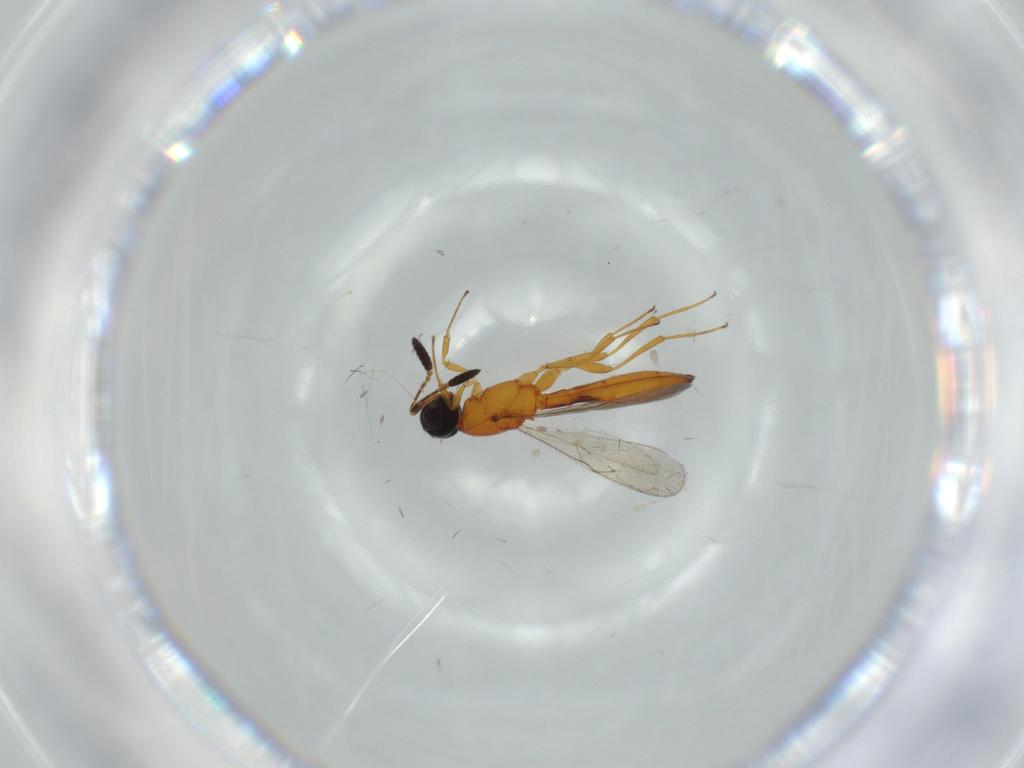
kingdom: Animalia
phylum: Arthropoda
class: Insecta
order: Hymenoptera
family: Scelionidae
